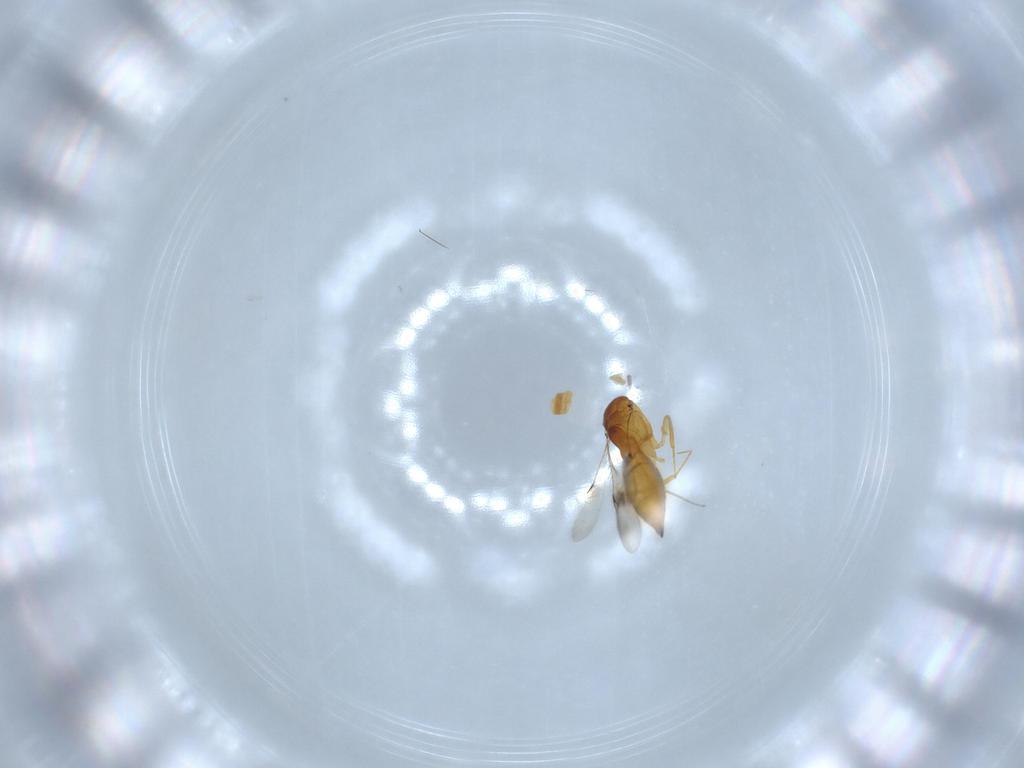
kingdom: Animalia
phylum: Arthropoda
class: Insecta
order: Hymenoptera
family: Scelionidae
